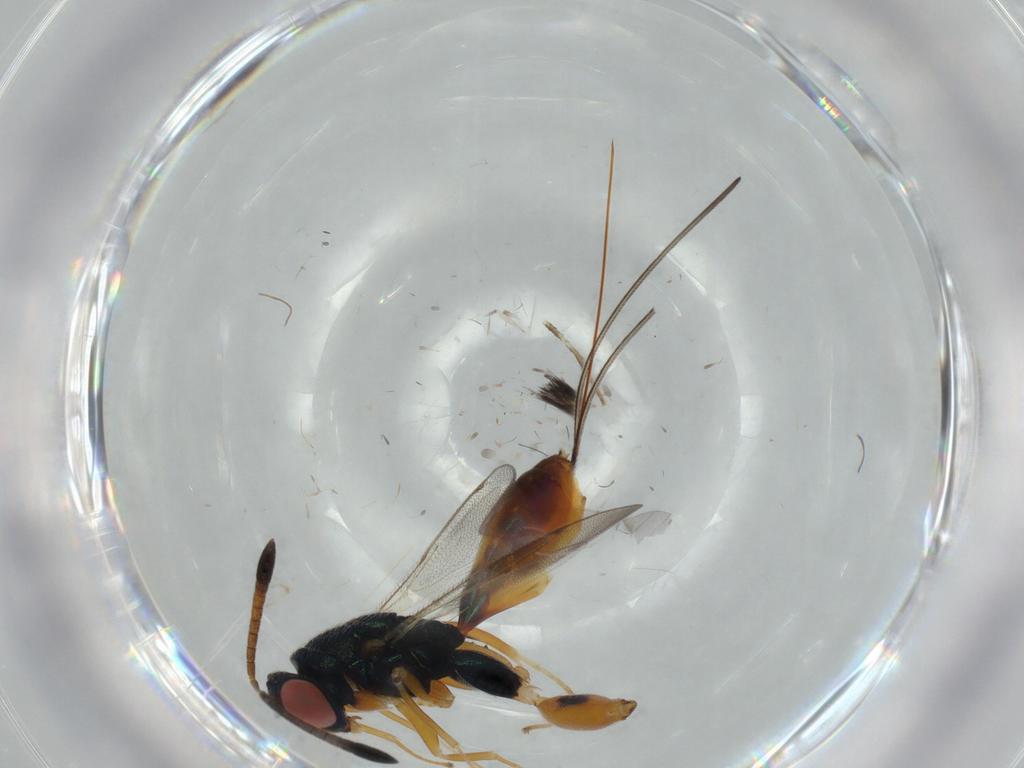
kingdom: Animalia
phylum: Arthropoda
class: Insecta
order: Hymenoptera
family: Torymidae
